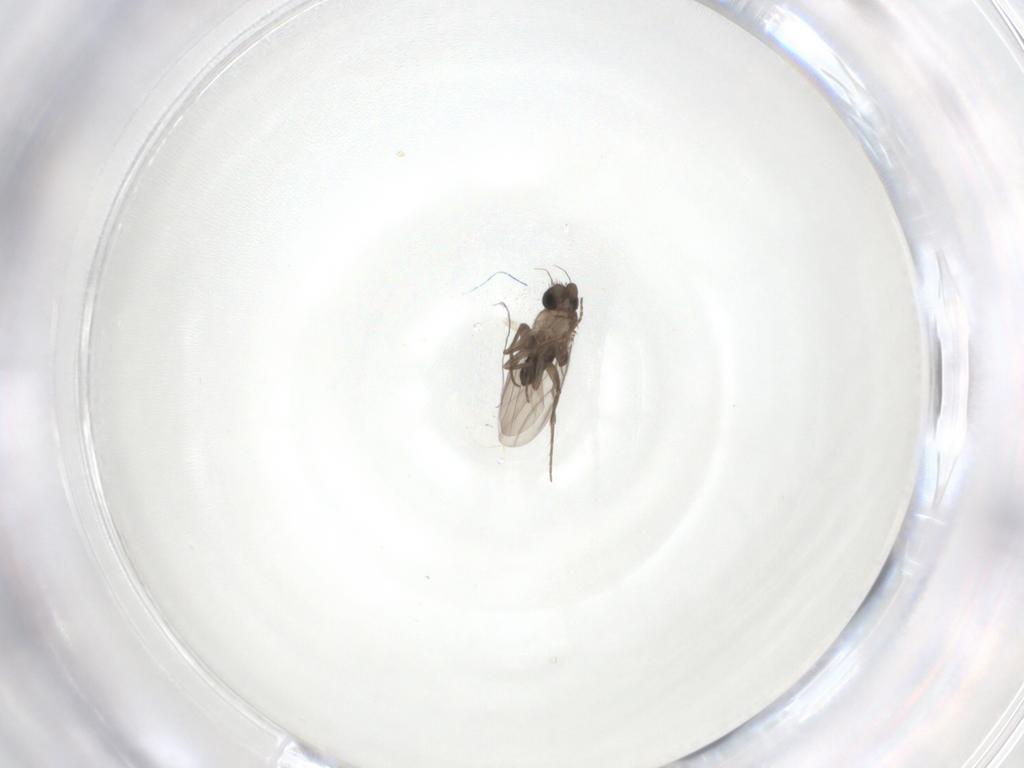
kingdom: Animalia
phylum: Arthropoda
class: Insecta
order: Diptera
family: Phoridae
